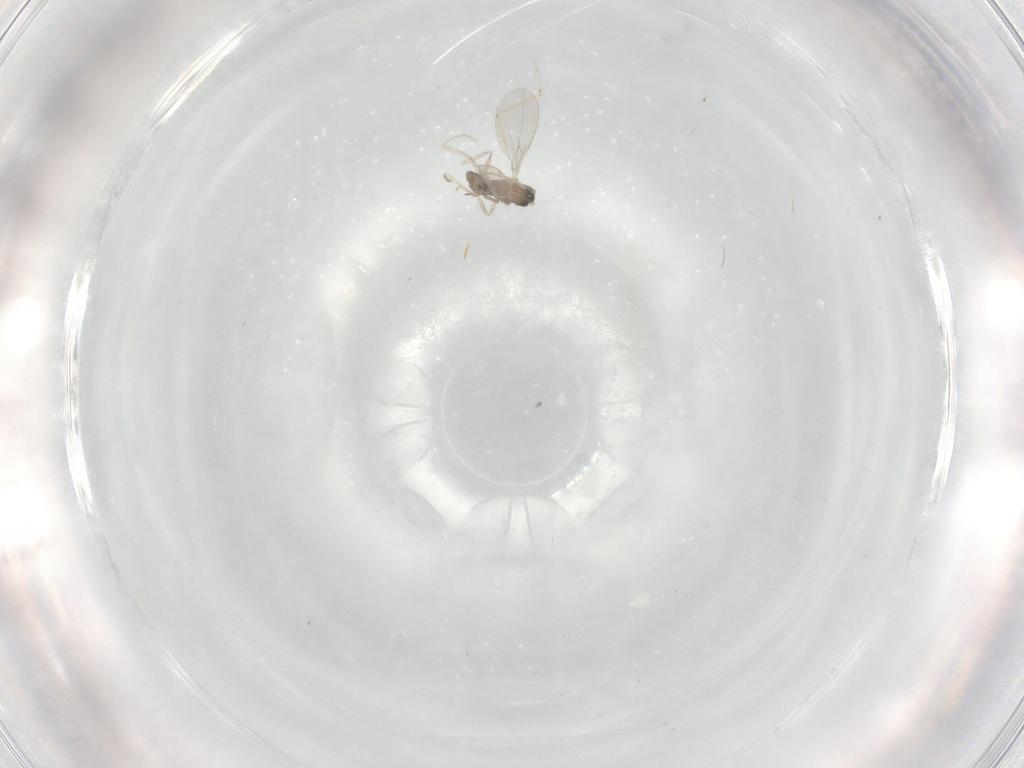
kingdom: Animalia
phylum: Arthropoda
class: Insecta
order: Diptera
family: Cecidomyiidae
